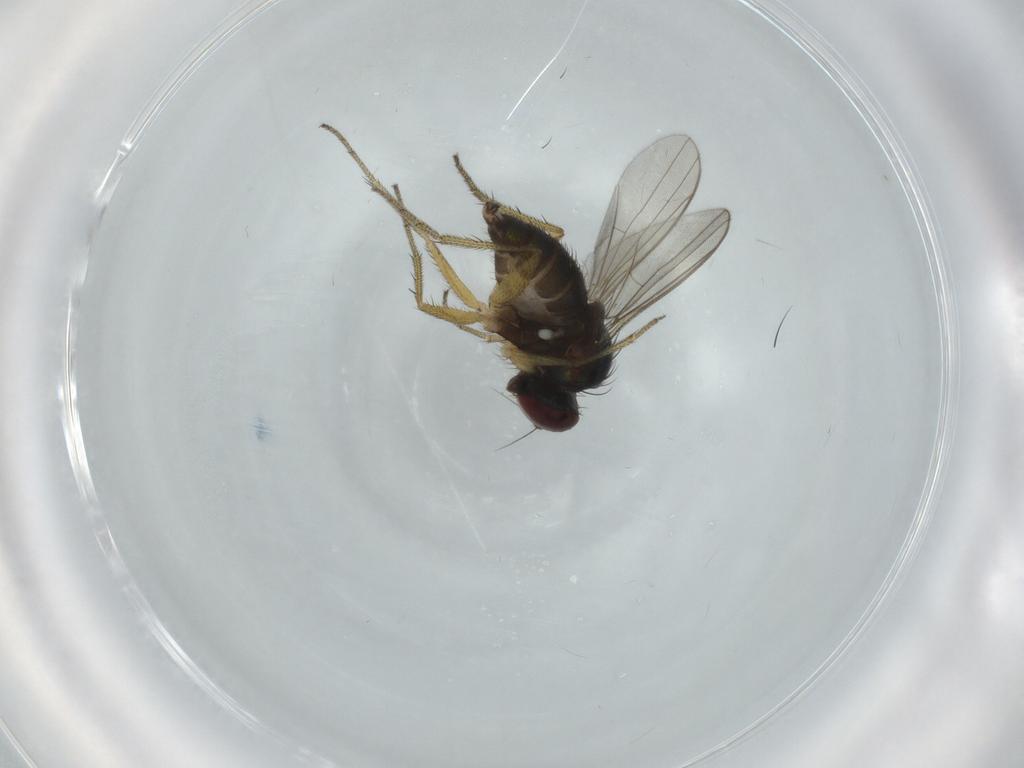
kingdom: Animalia
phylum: Arthropoda
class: Insecta
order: Diptera
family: Dolichopodidae
